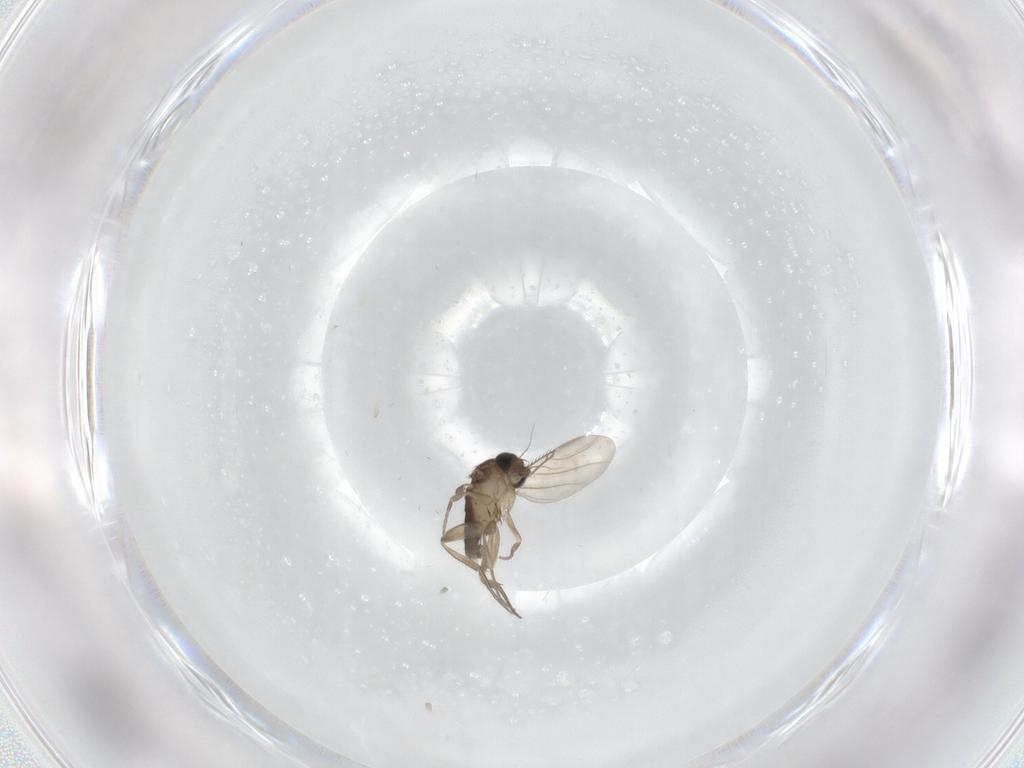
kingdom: Animalia
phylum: Arthropoda
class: Insecta
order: Diptera
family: Phoridae
